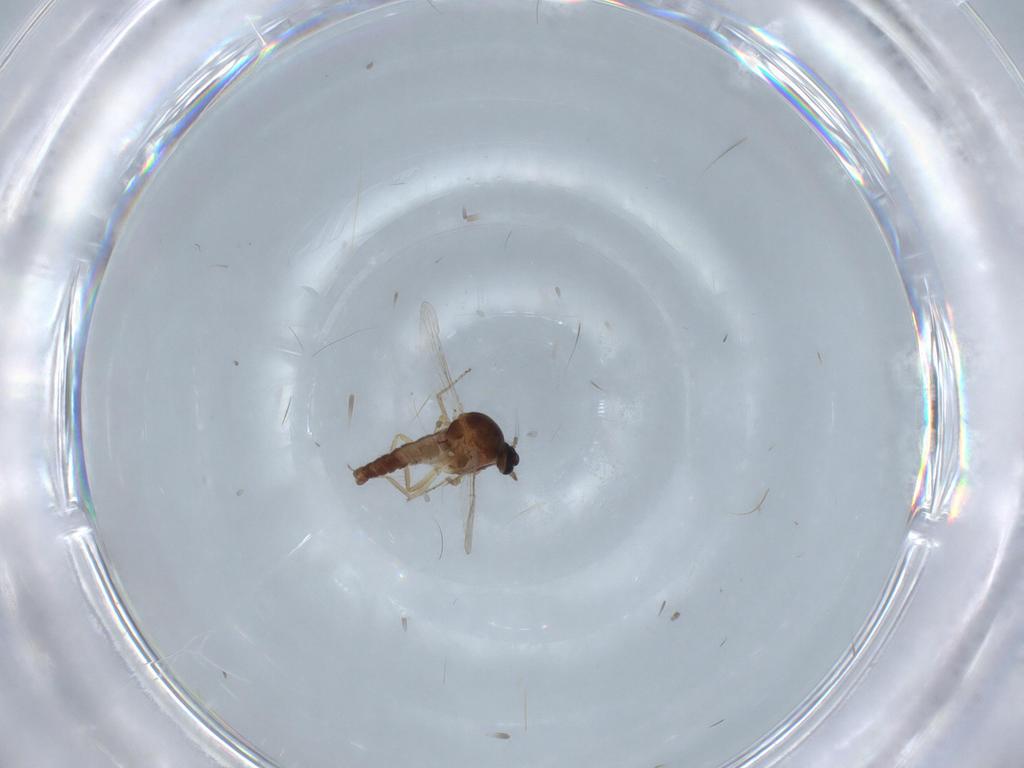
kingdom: Animalia
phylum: Arthropoda
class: Insecta
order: Diptera
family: Ceratopogonidae
